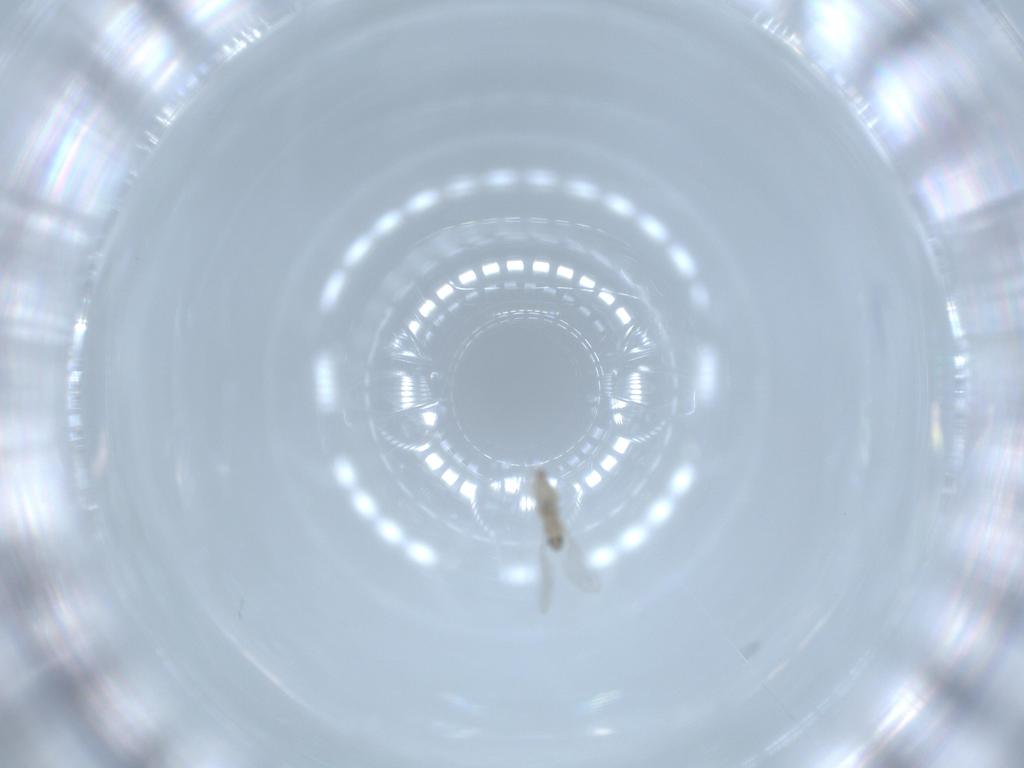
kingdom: Animalia
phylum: Arthropoda
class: Insecta
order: Diptera
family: Cecidomyiidae
